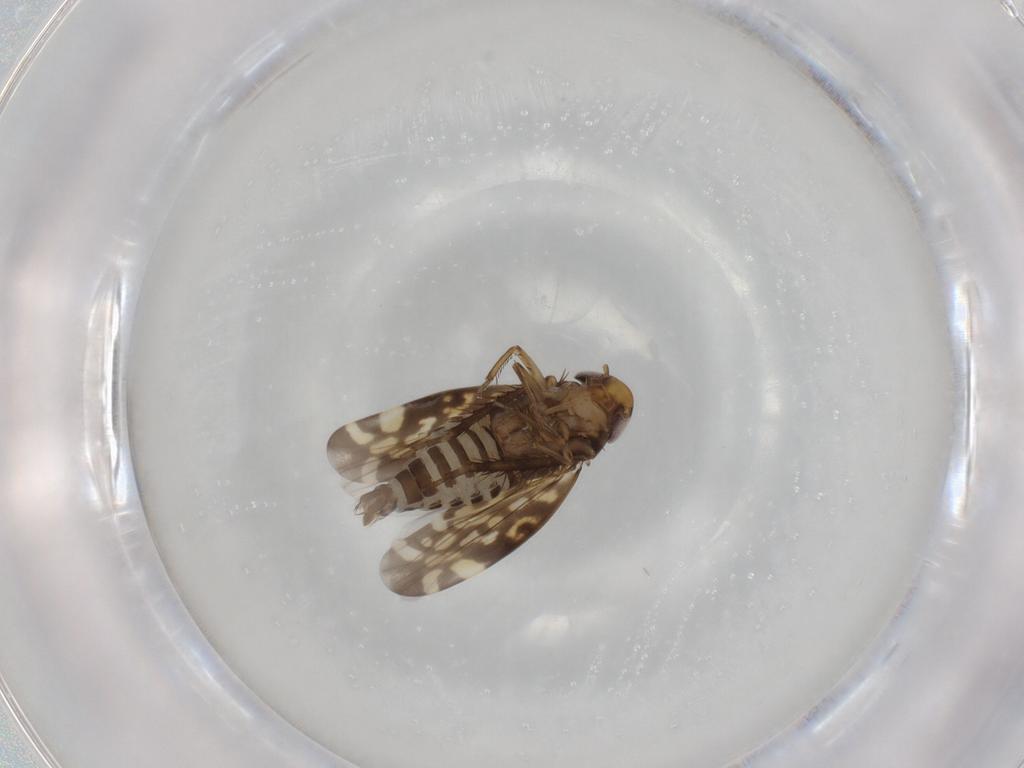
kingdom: Animalia
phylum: Arthropoda
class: Insecta
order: Hemiptera
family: Cicadellidae
